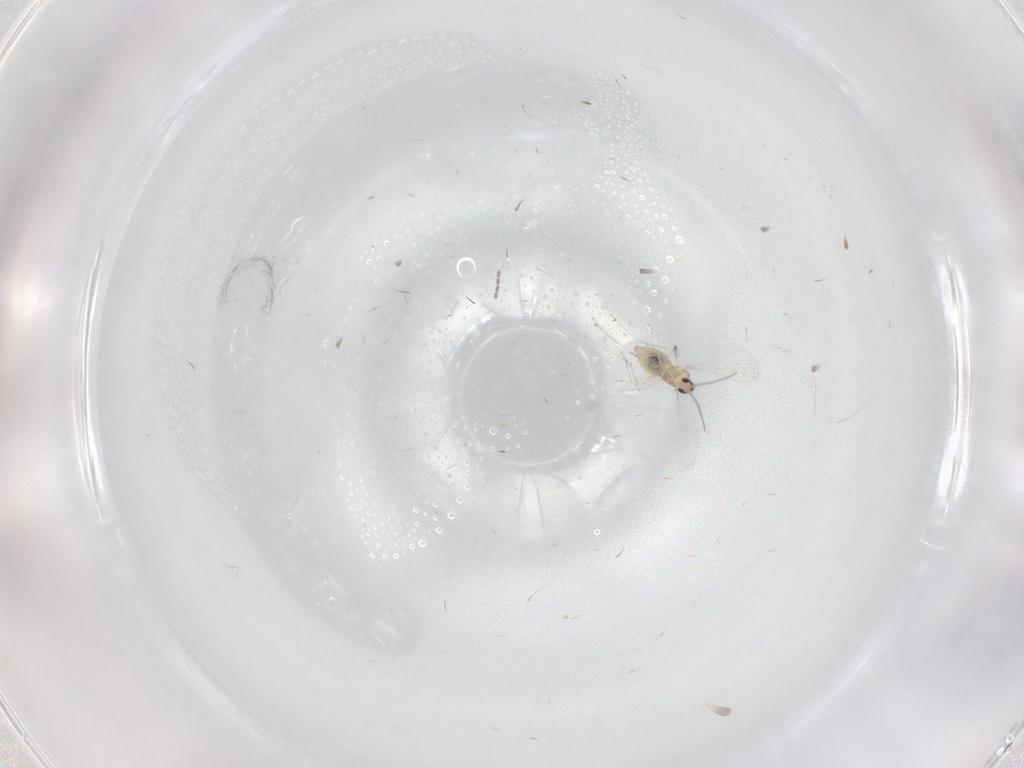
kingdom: Animalia
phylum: Arthropoda
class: Insecta
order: Diptera
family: Cecidomyiidae
